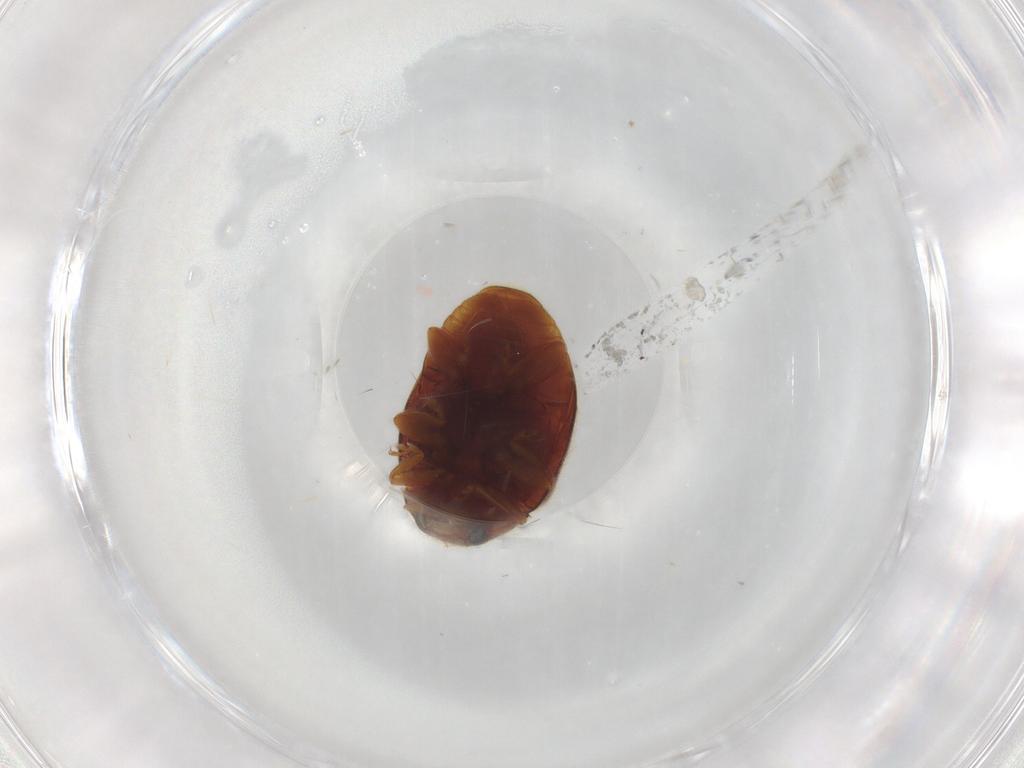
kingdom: Animalia
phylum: Arthropoda
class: Insecta
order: Coleoptera
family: Coccinellidae
